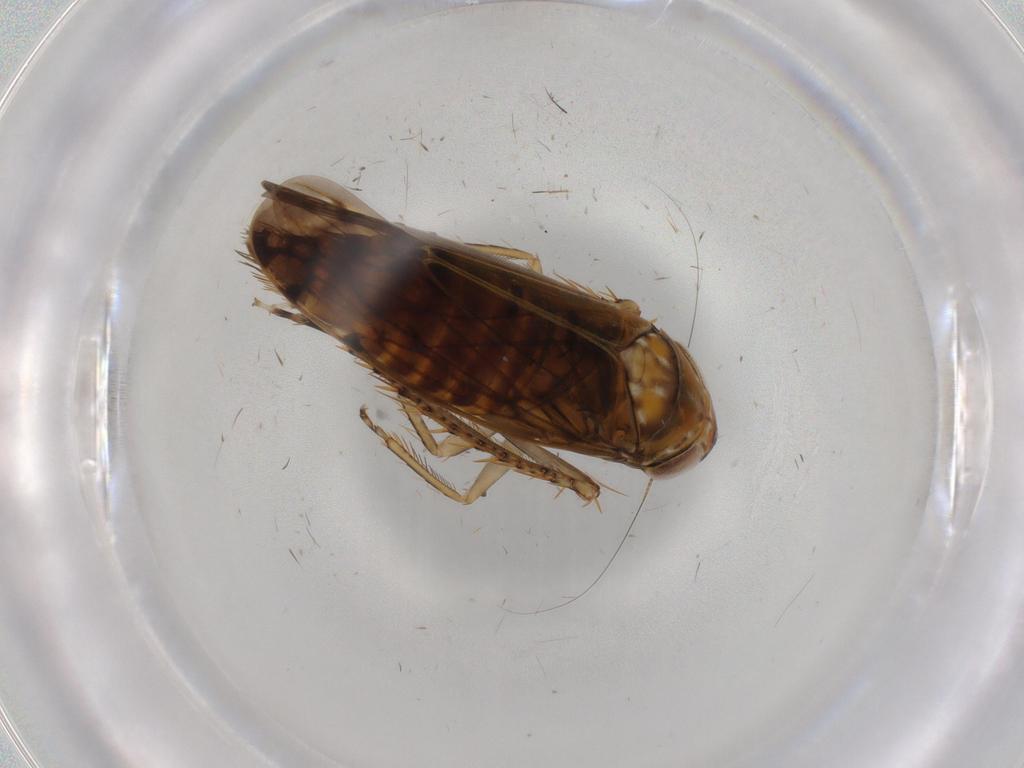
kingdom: Animalia
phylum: Arthropoda
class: Insecta
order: Hemiptera
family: Cicadellidae
